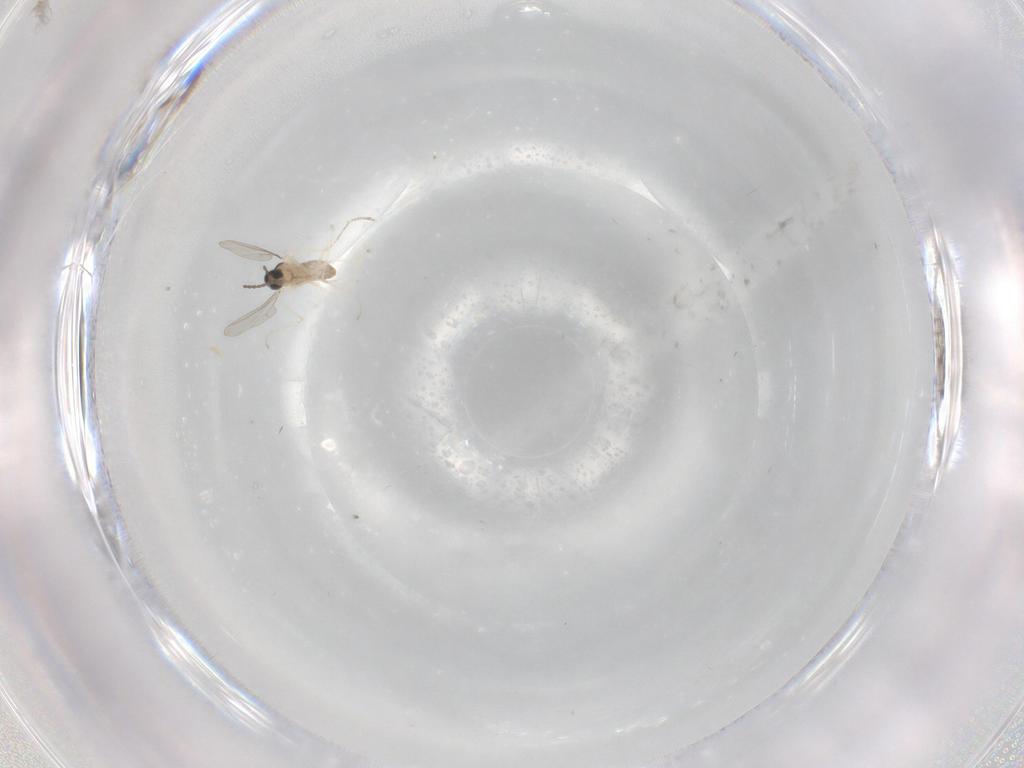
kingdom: Animalia
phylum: Arthropoda
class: Insecta
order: Diptera
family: Cecidomyiidae
